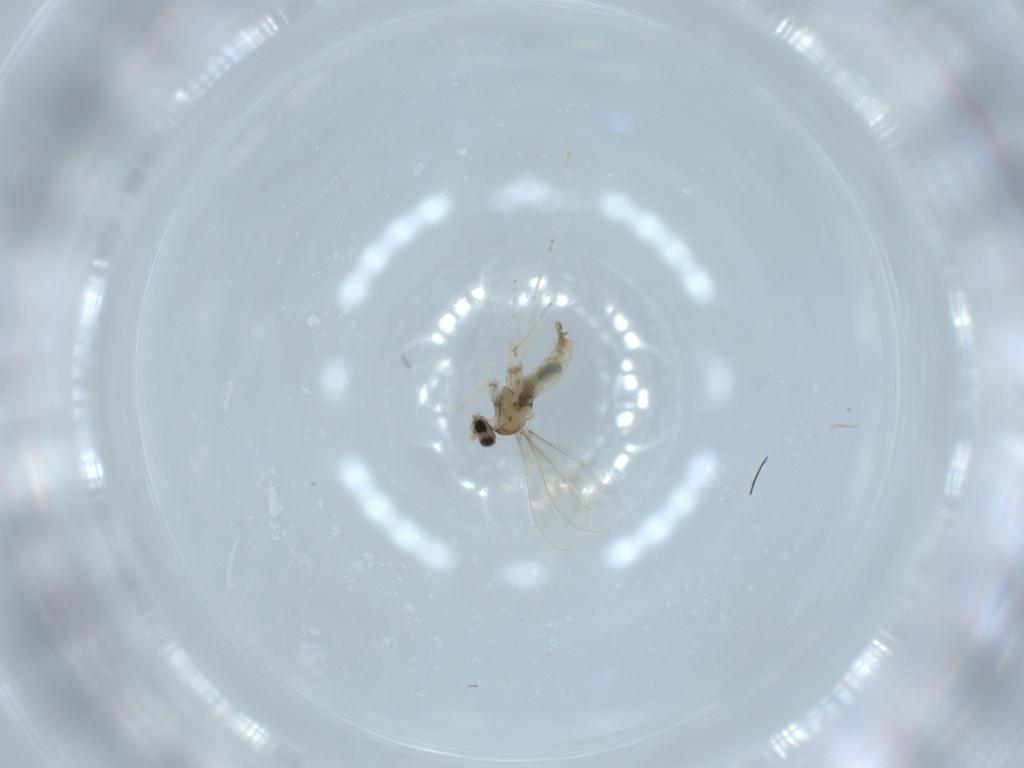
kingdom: Animalia
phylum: Arthropoda
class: Insecta
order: Diptera
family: Cecidomyiidae
